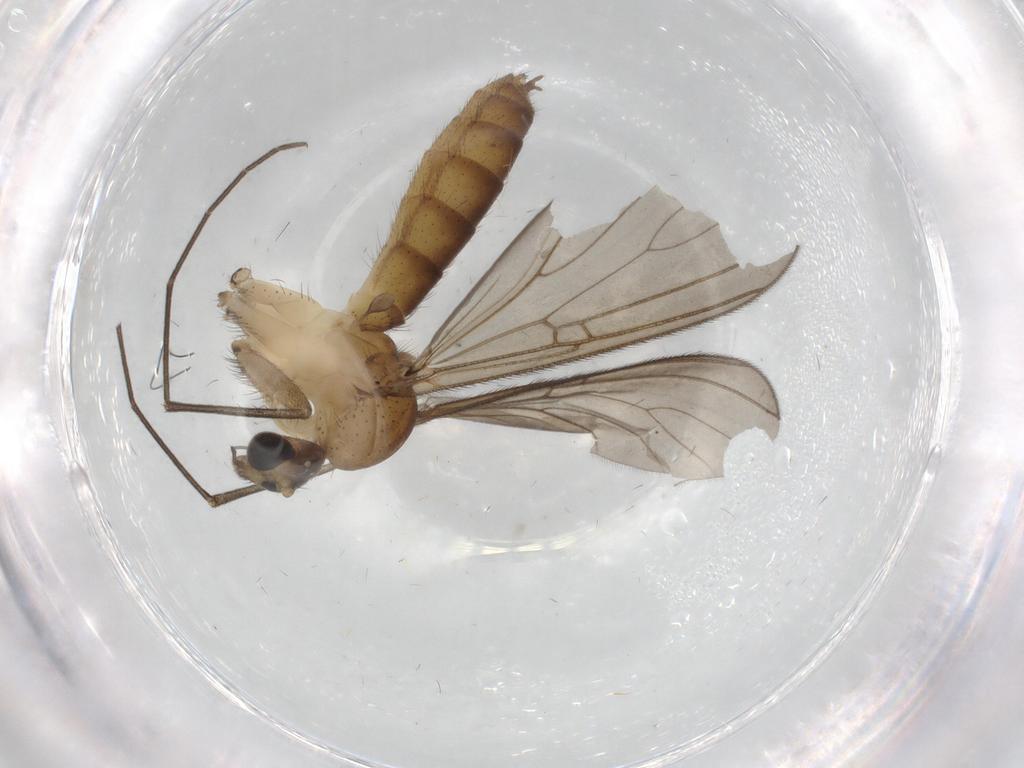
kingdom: Animalia
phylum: Arthropoda
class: Insecta
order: Diptera
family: Mycetophilidae
